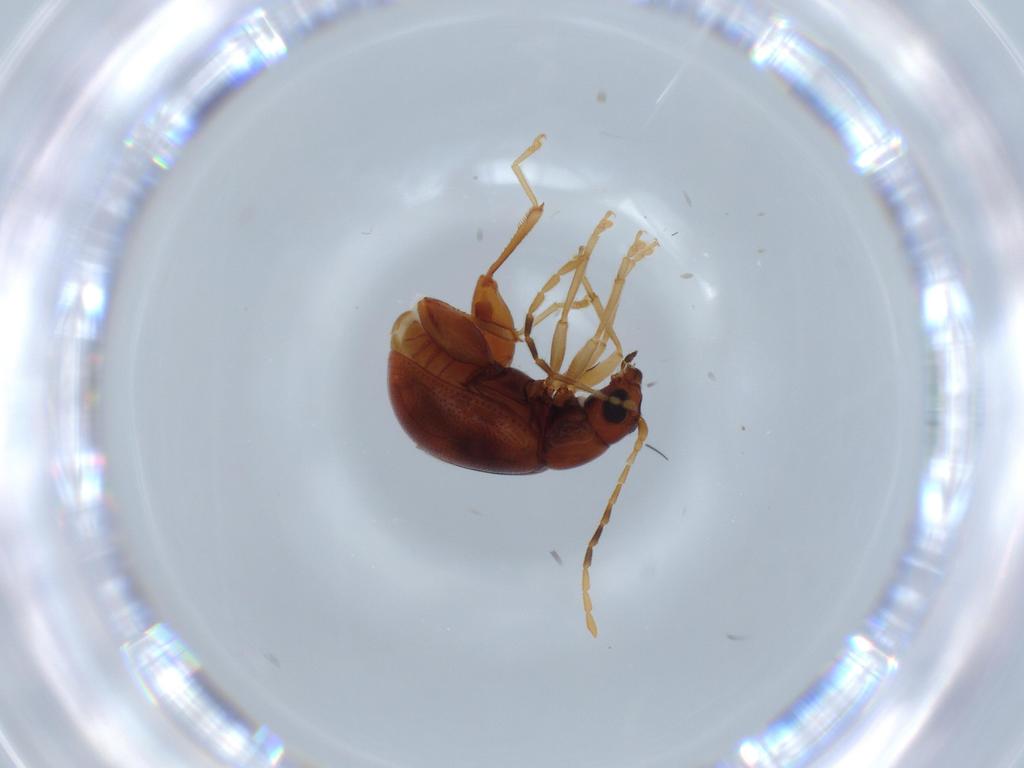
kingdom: Animalia
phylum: Arthropoda
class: Insecta
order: Coleoptera
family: Chrysomelidae
